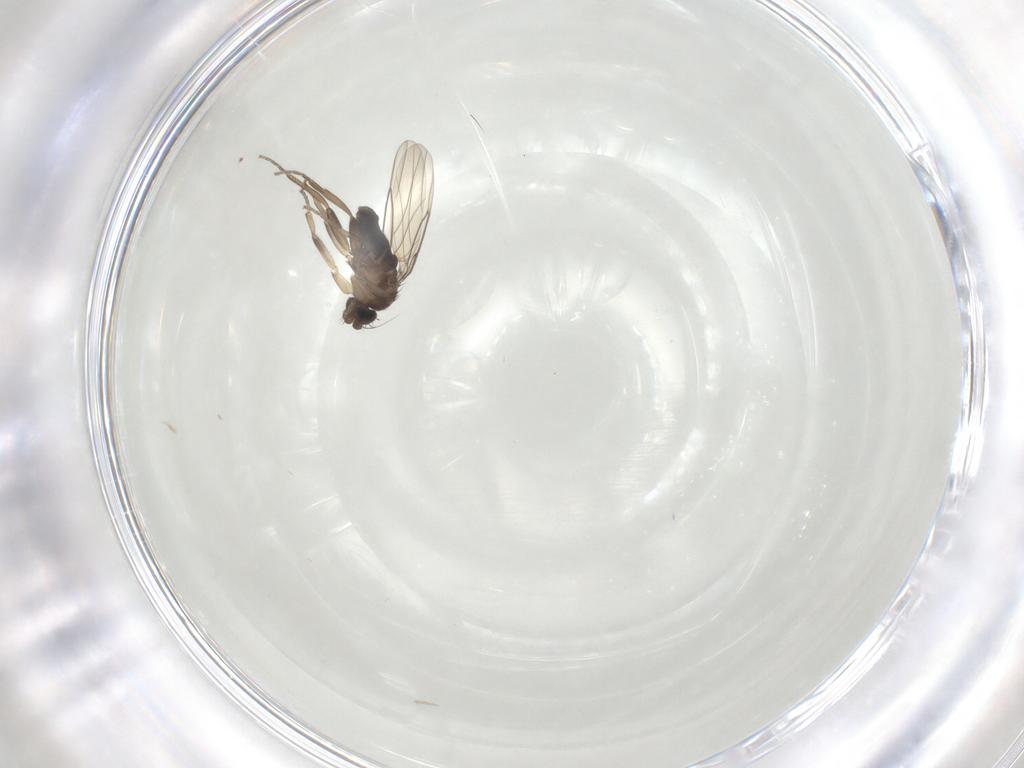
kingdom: Animalia
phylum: Arthropoda
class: Insecta
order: Diptera
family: Phoridae
